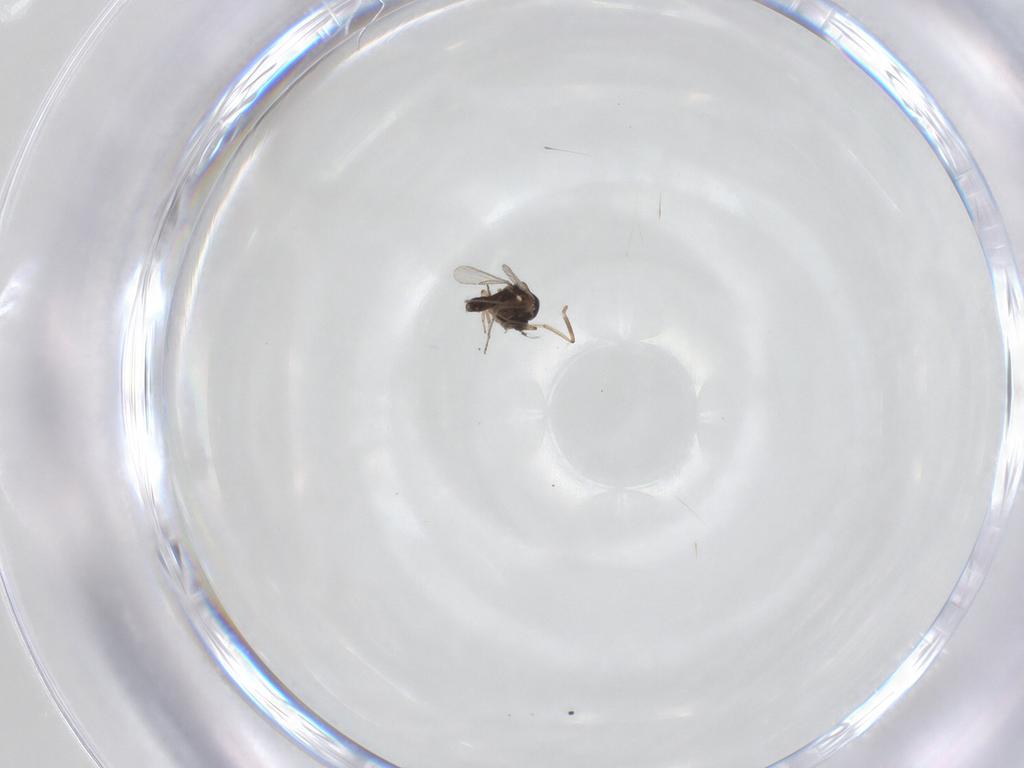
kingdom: Animalia
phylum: Arthropoda
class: Insecta
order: Diptera
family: Ceratopogonidae
